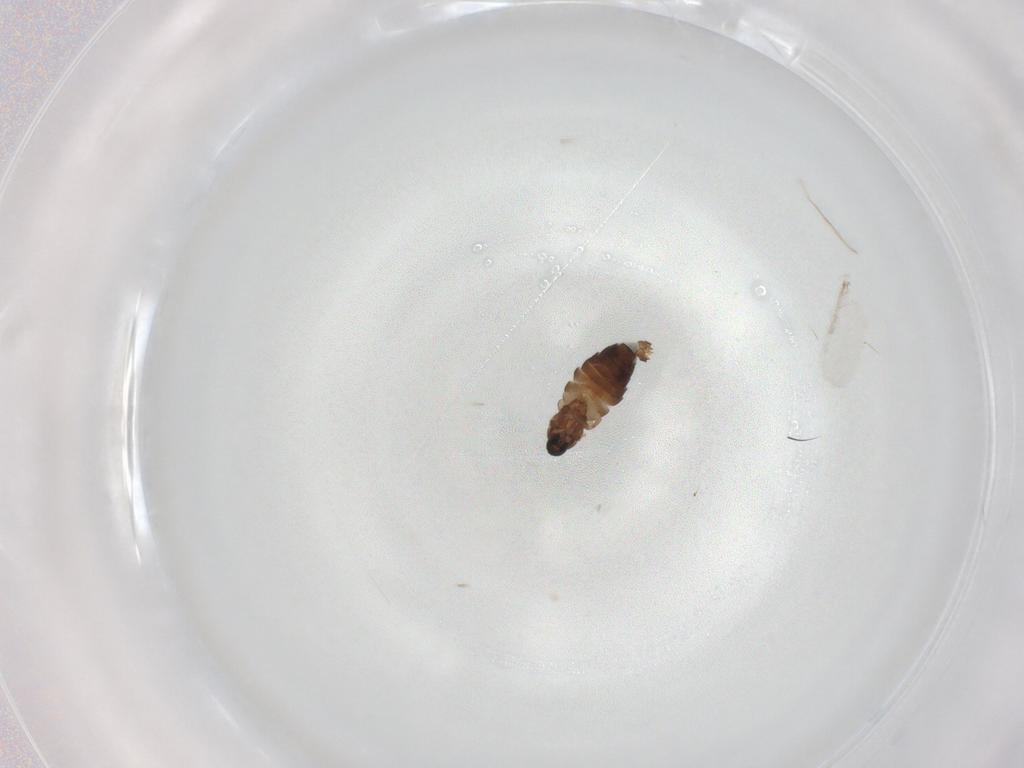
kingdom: Animalia
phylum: Arthropoda
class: Insecta
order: Diptera
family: Scatopsidae
